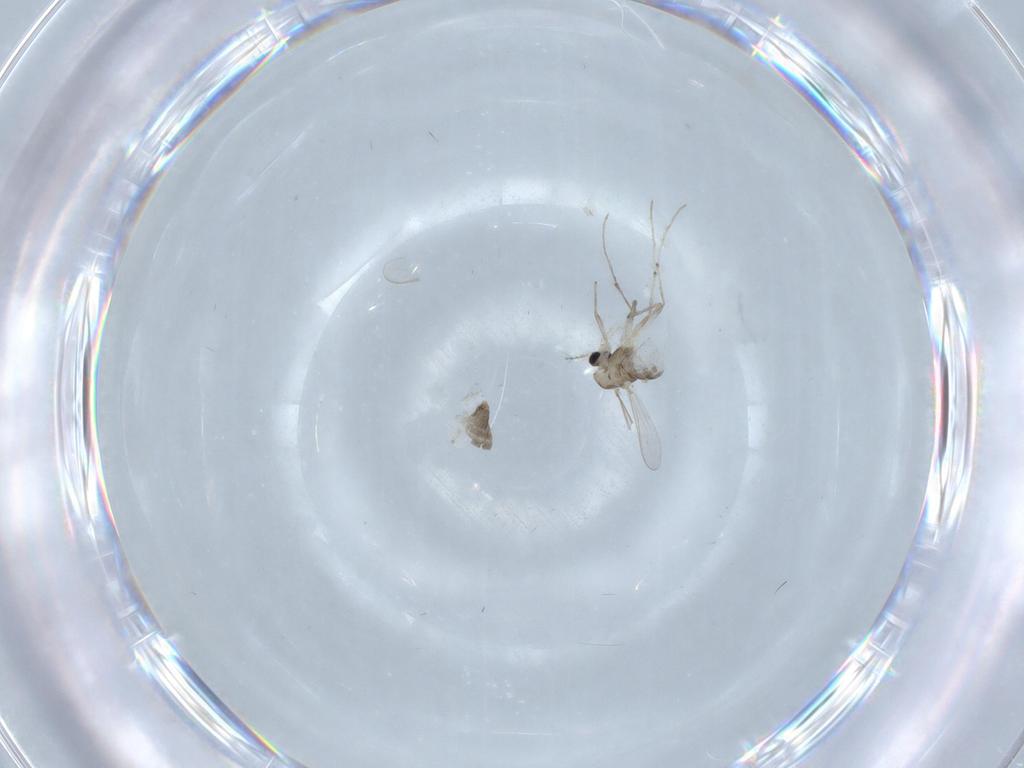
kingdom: Animalia
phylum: Arthropoda
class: Insecta
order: Diptera
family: Chironomidae
